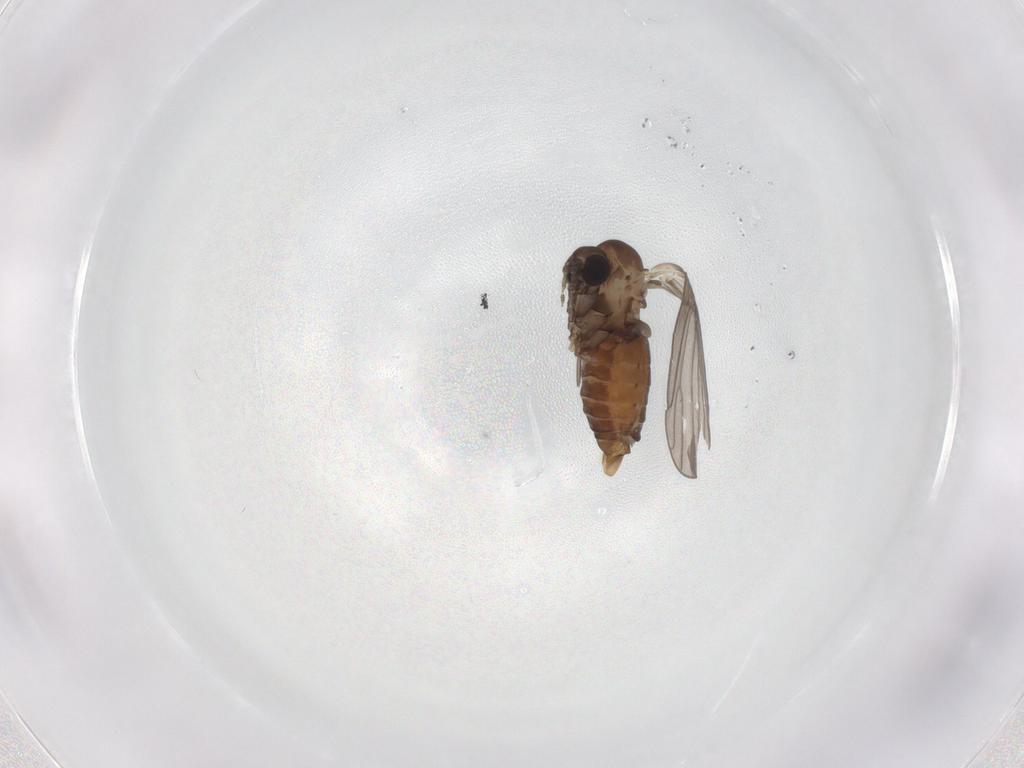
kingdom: Animalia
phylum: Arthropoda
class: Insecta
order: Diptera
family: Psychodidae
